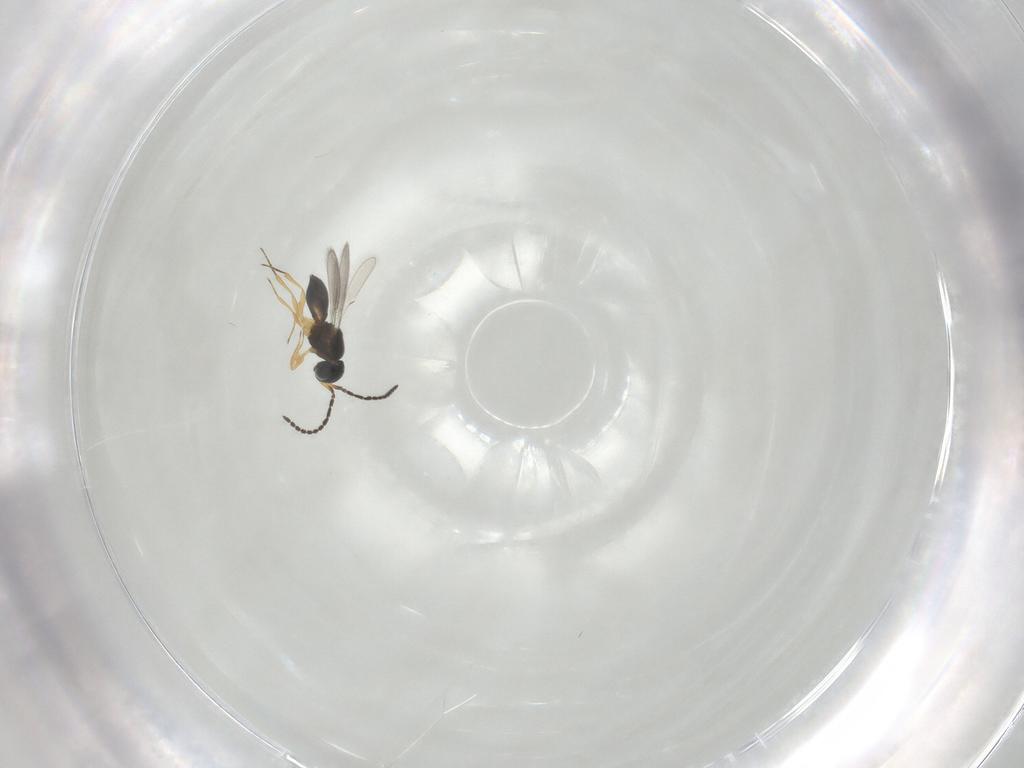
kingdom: Animalia
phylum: Arthropoda
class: Insecta
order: Hymenoptera
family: Scelionidae
